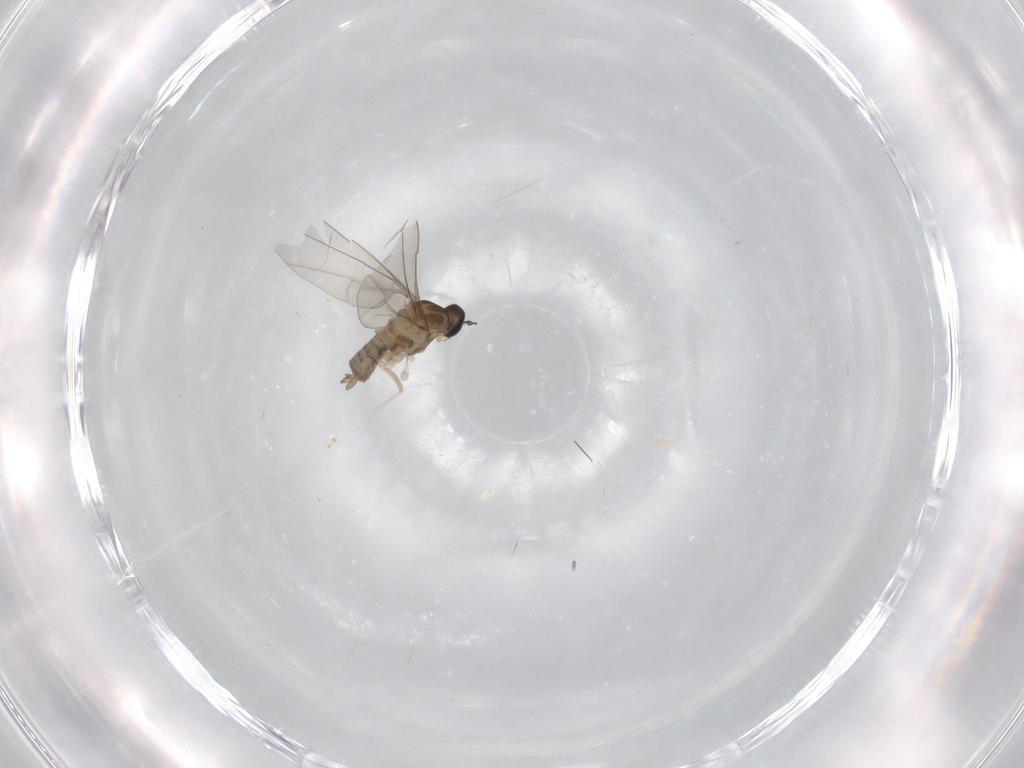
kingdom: Animalia
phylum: Arthropoda
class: Insecta
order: Diptera
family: Cecidomyiidae
